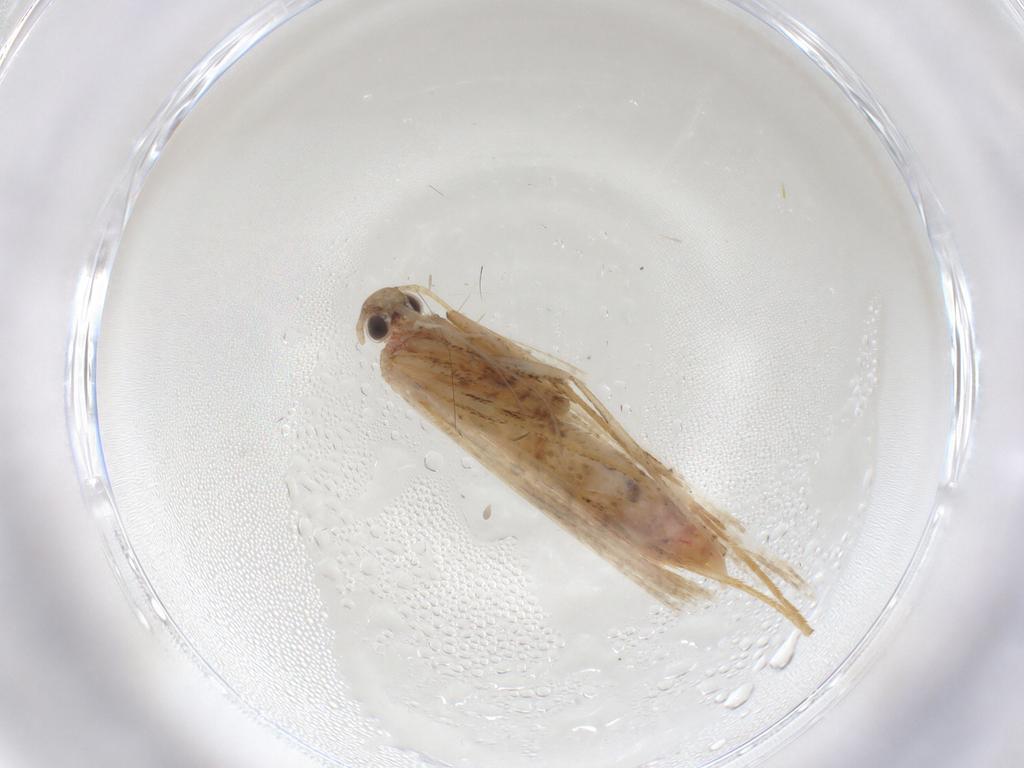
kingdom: Animalia
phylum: Arthropoda
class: Insecta
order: Lepidoptera
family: Crambidae
